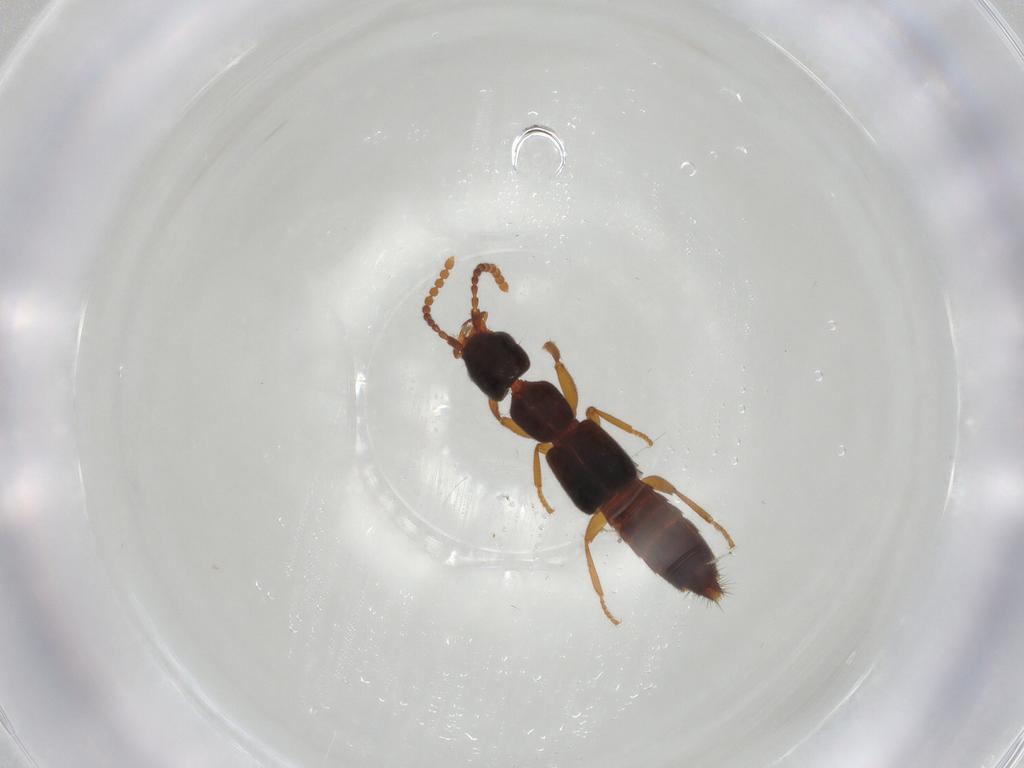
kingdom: Animalia
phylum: Arthropoda
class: Insecta
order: Coleoptera
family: Staphylinidae
